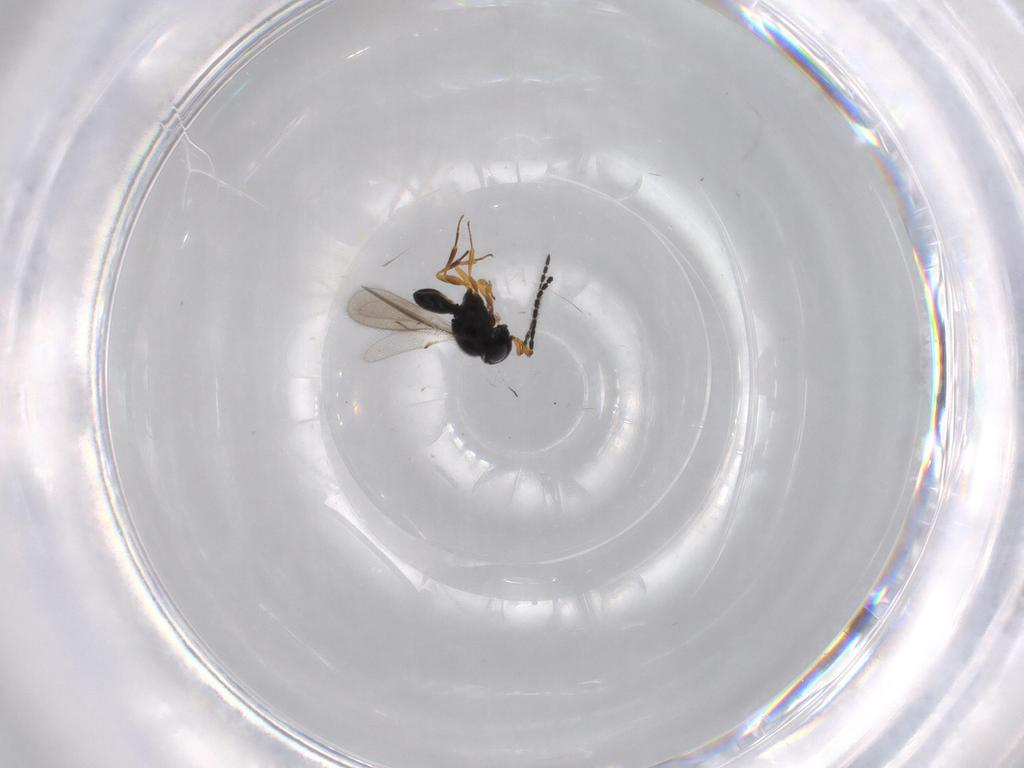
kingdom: Animalia
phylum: Arthropoda
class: Insecta
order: Hymenoptera
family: Scelionidae
